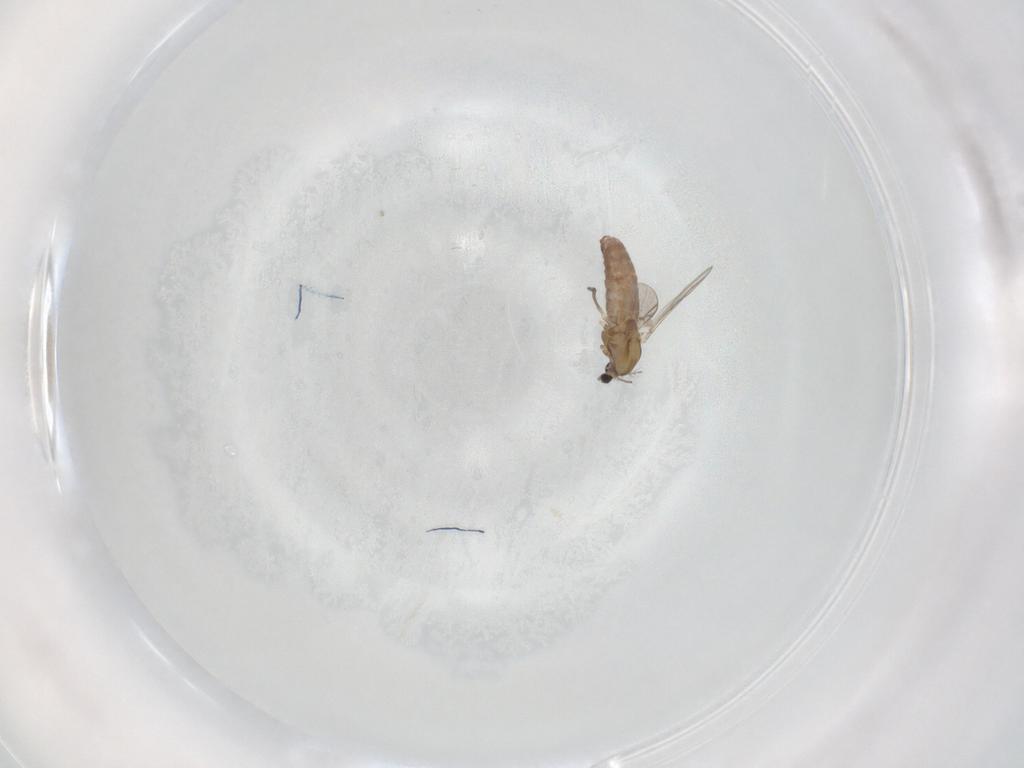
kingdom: Animalia
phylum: Arthropoda
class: Insecta
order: Diptera
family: Chironomidae
